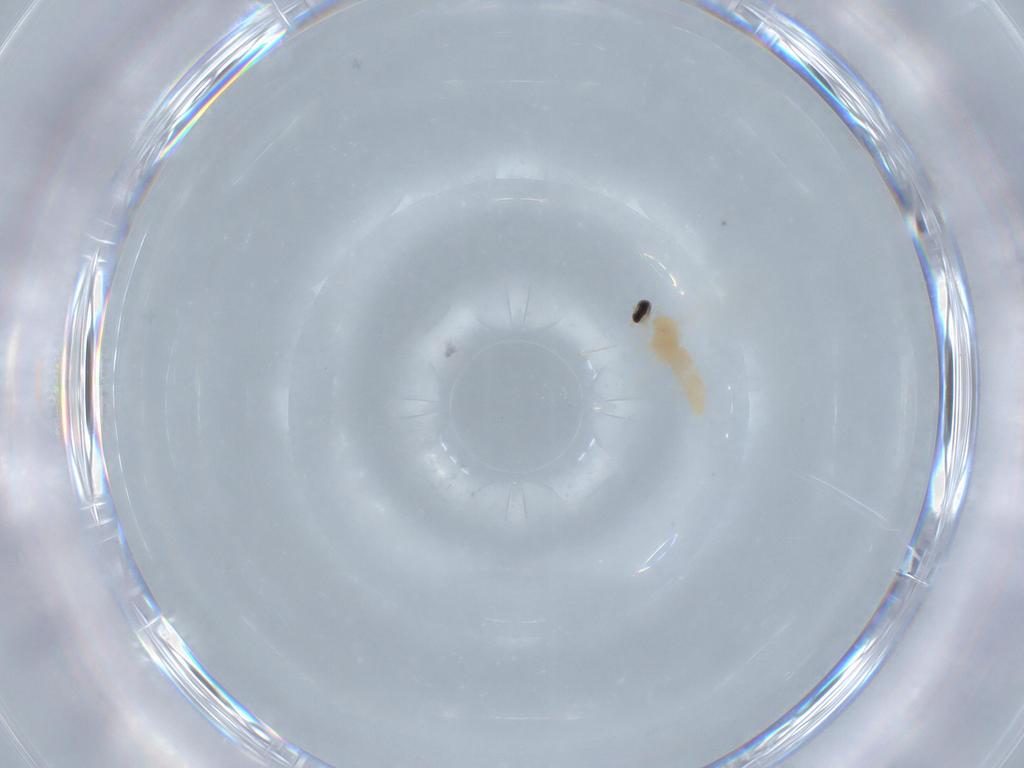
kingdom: Animalia
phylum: Arthropoda
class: Insecta
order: Diptera
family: Cecidomyiidae
